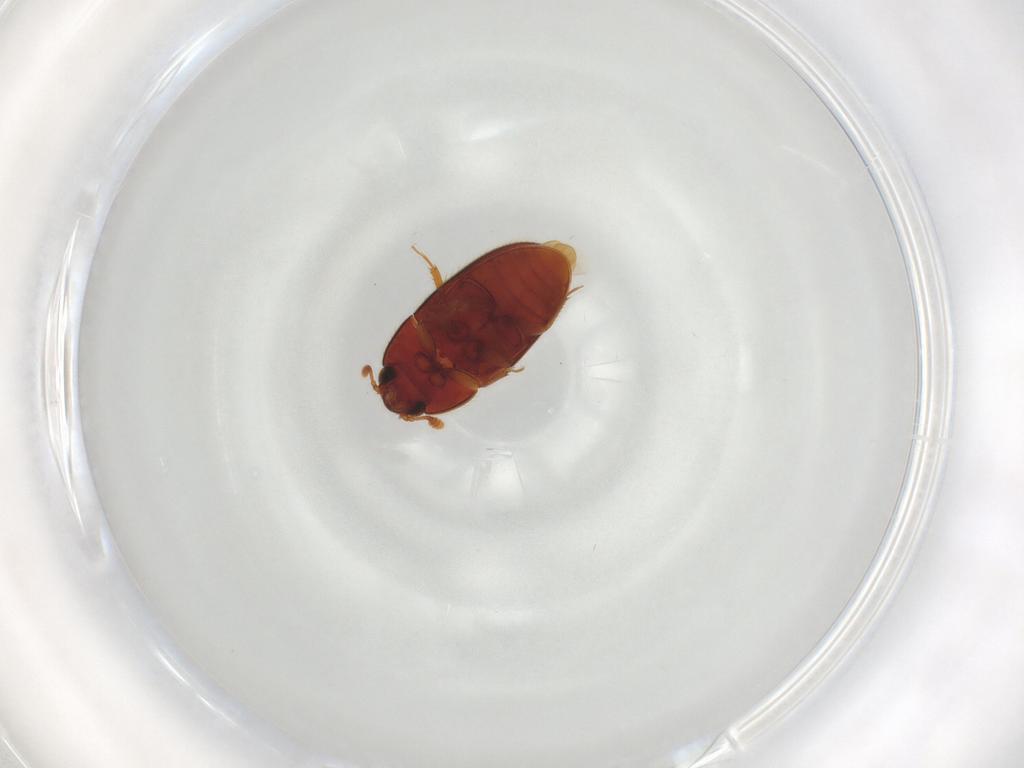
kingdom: Animalia
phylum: Arthropoda
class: Insecta
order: Coleoptera
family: Biphyllidae
